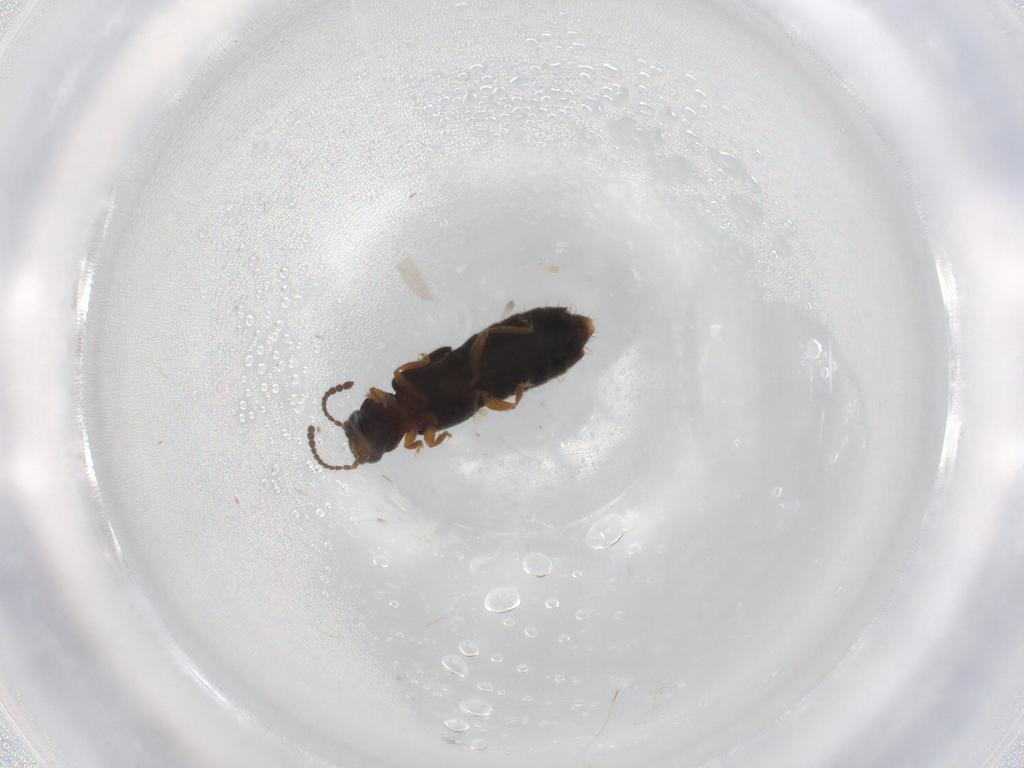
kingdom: Animalia
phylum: Arthropoda
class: Insecta
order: Coleoptera
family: Staphylinidae
